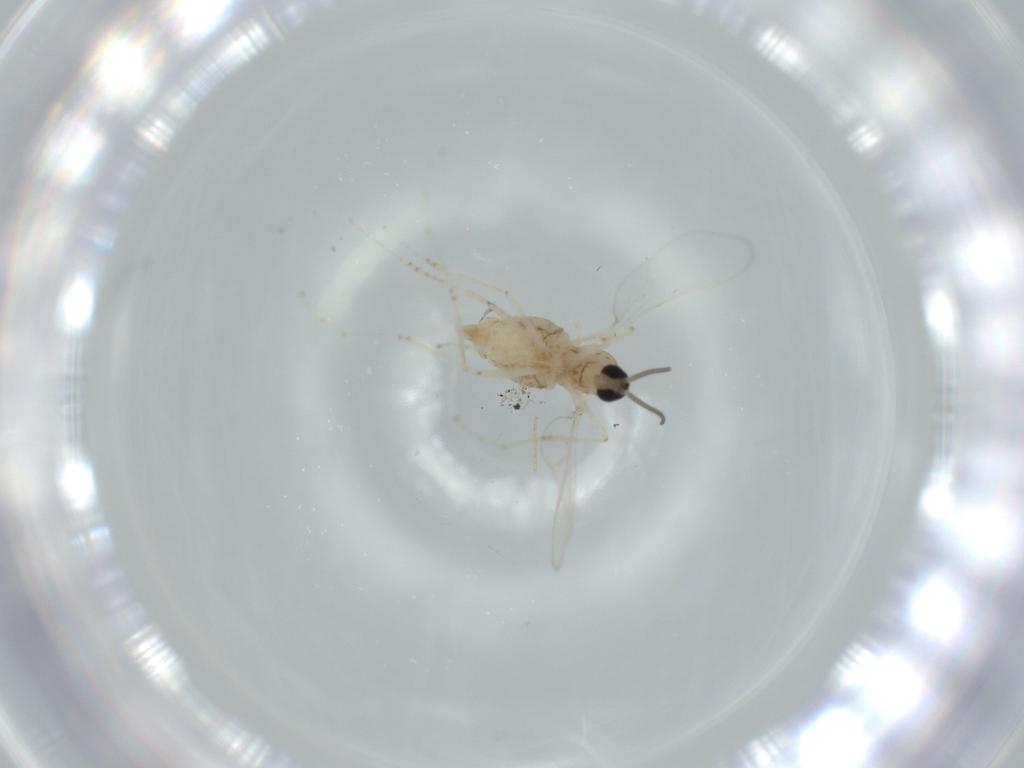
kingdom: Animalia
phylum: Arthropoda
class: Insecta
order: Diptera
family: Cecidomyiidae
